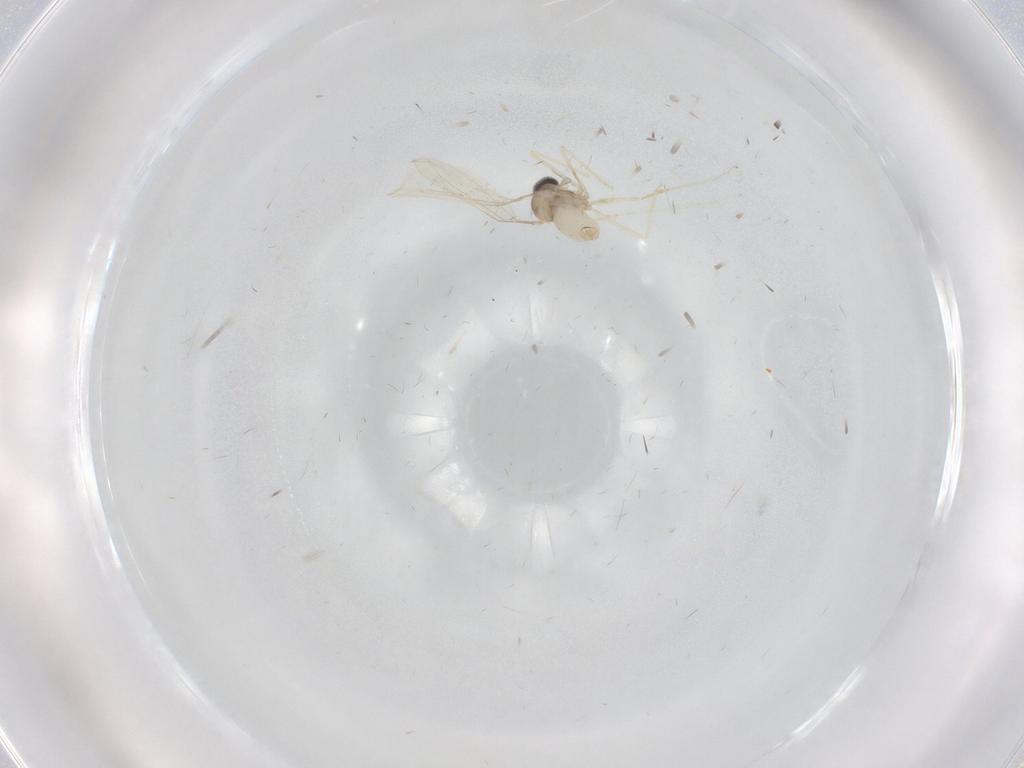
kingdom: Animalia
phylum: Arthropoda
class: Insecta
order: Diptera
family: Cecidomyiidae
